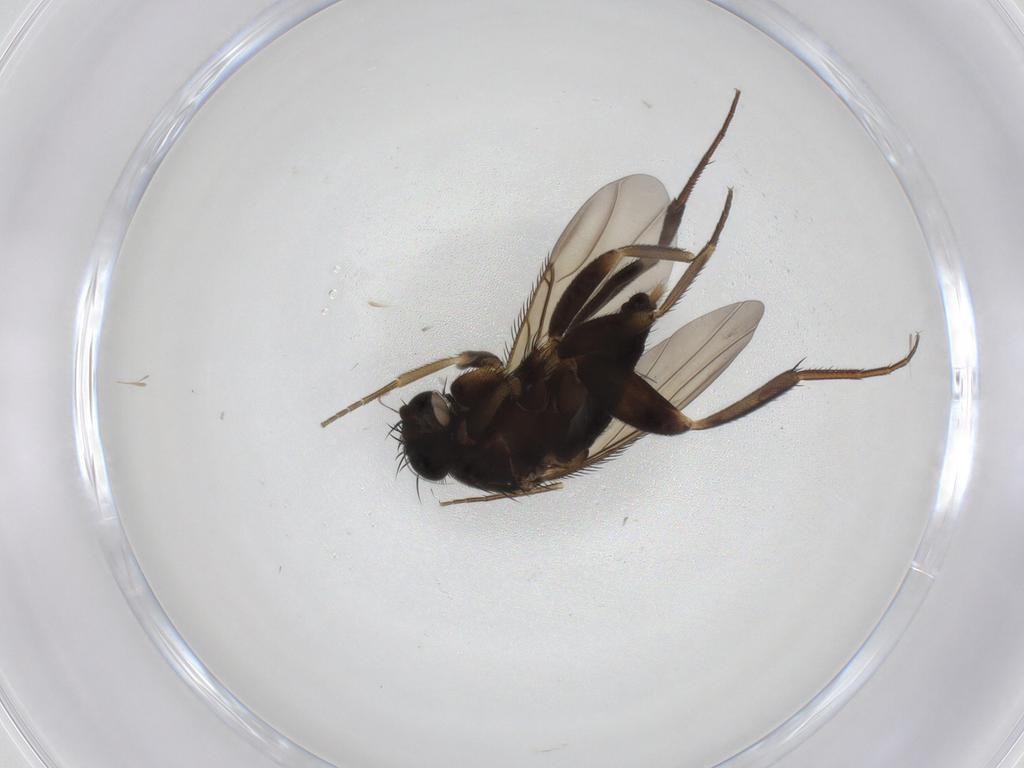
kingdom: Animalia
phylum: Arthropoda
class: Insecta
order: Diptera
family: Phoridae
